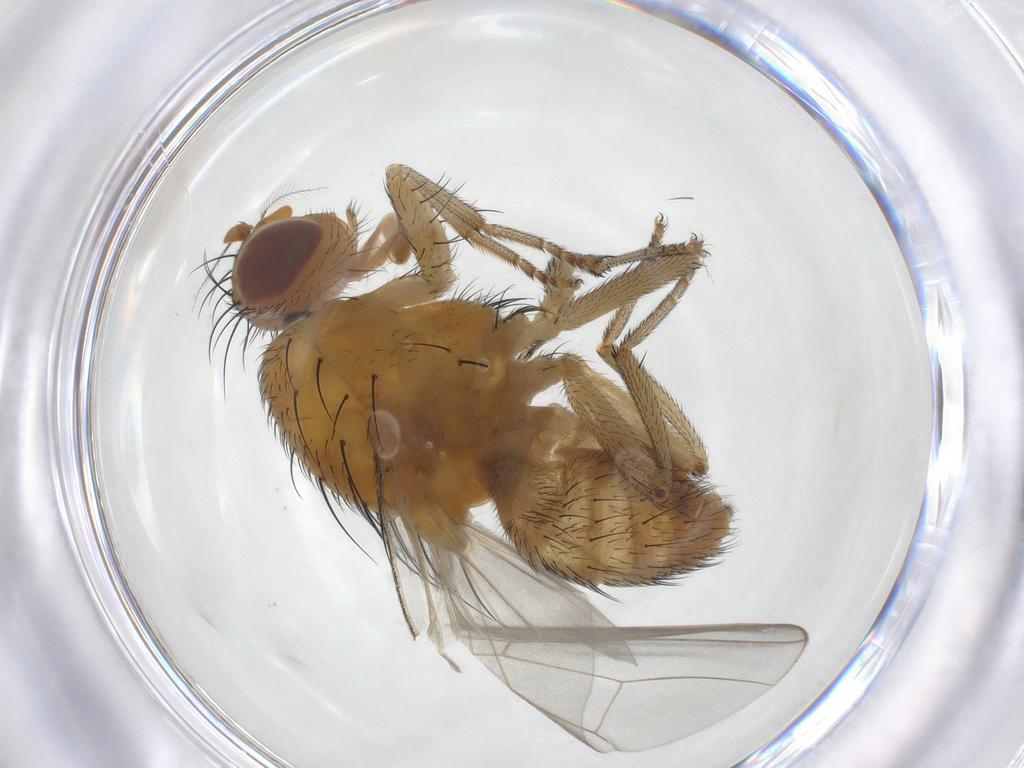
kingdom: Animalia
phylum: Arthropoda
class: Insecta
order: Diptera
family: Lauxaniidae
